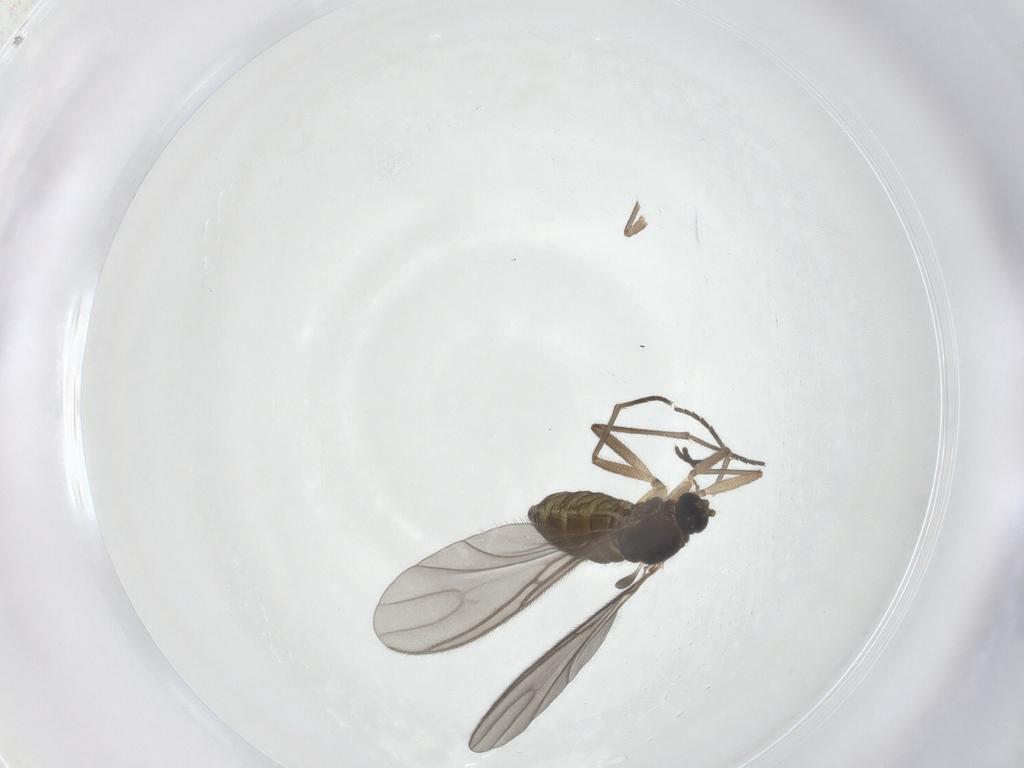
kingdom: Animalia
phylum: Arthropoda
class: Insecta
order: Diptera
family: Sciaridae
